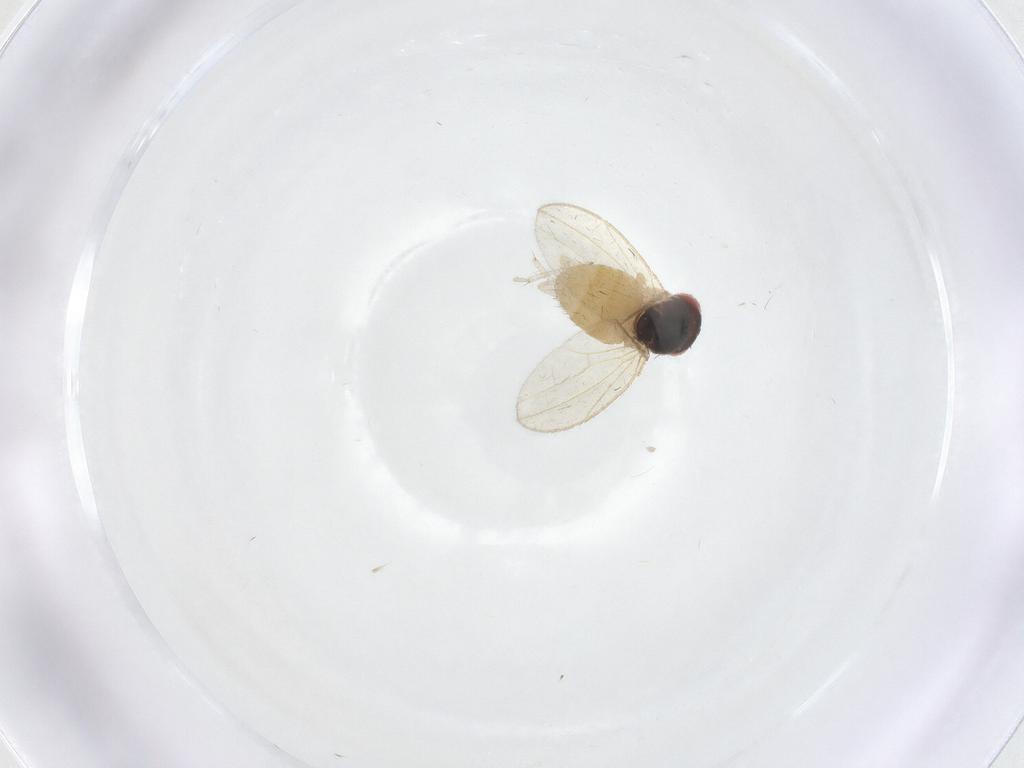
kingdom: Animalia
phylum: Arthropoda
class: Insecta
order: Diptera
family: Drosophilidae
